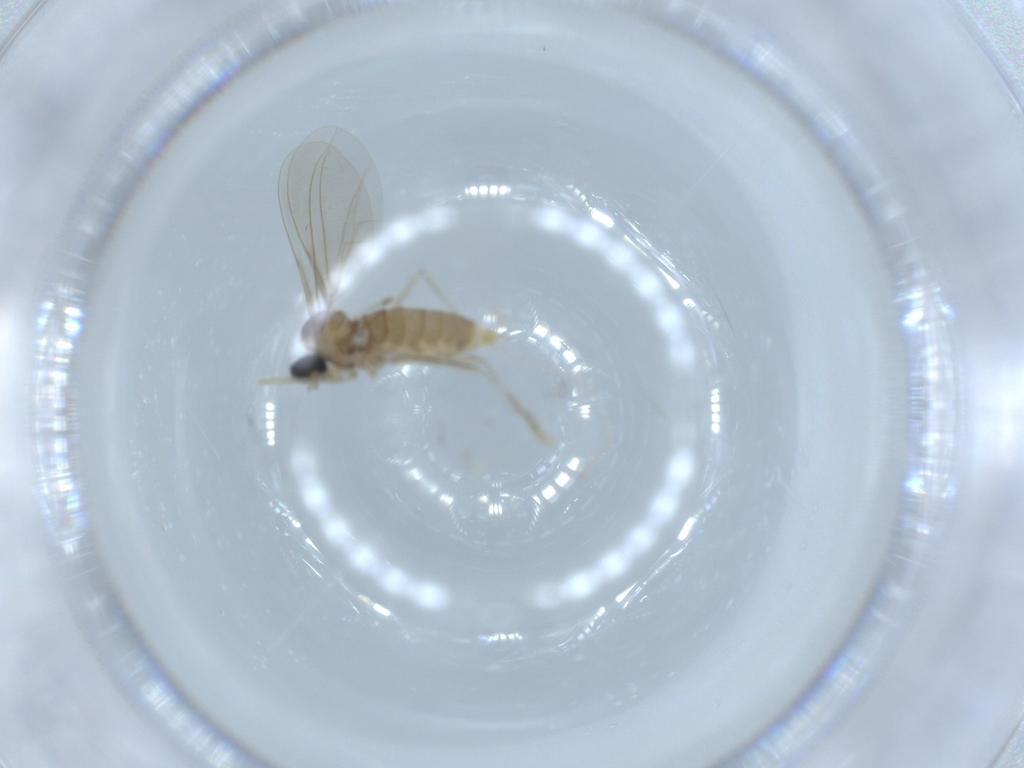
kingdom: Animalia
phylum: Arthropoda
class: Insecta
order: Diptera
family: Cecidomyiidae
